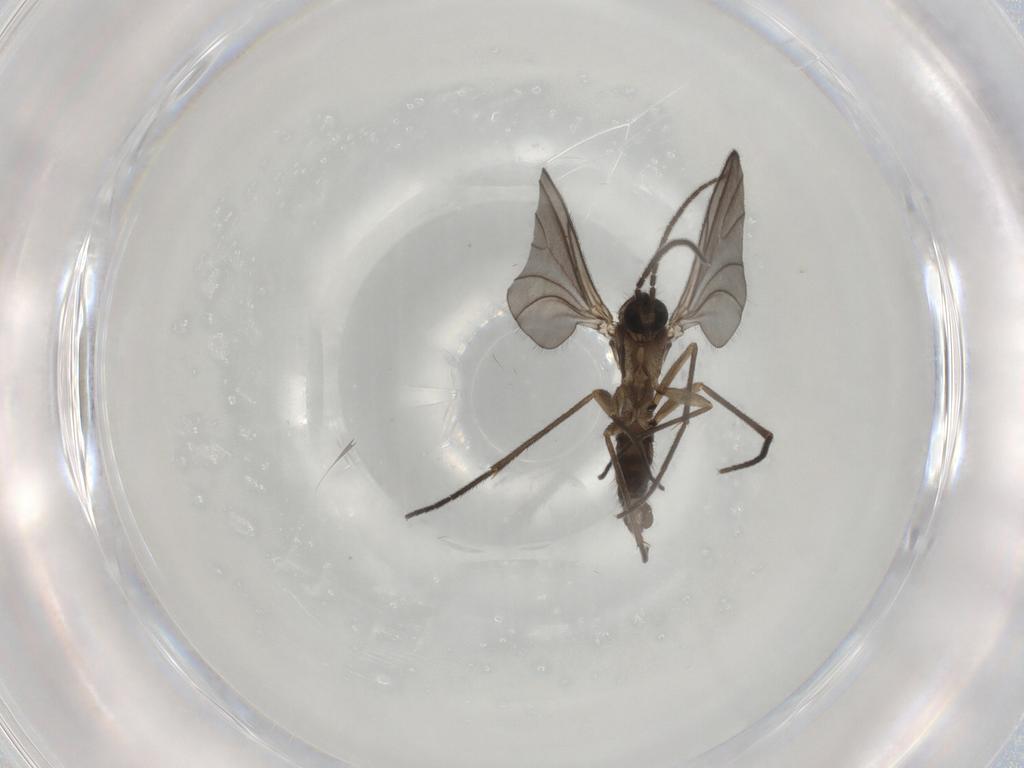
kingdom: Animalia
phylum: Arthropoda
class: Insecta
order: Diptera
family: Sciaridae
